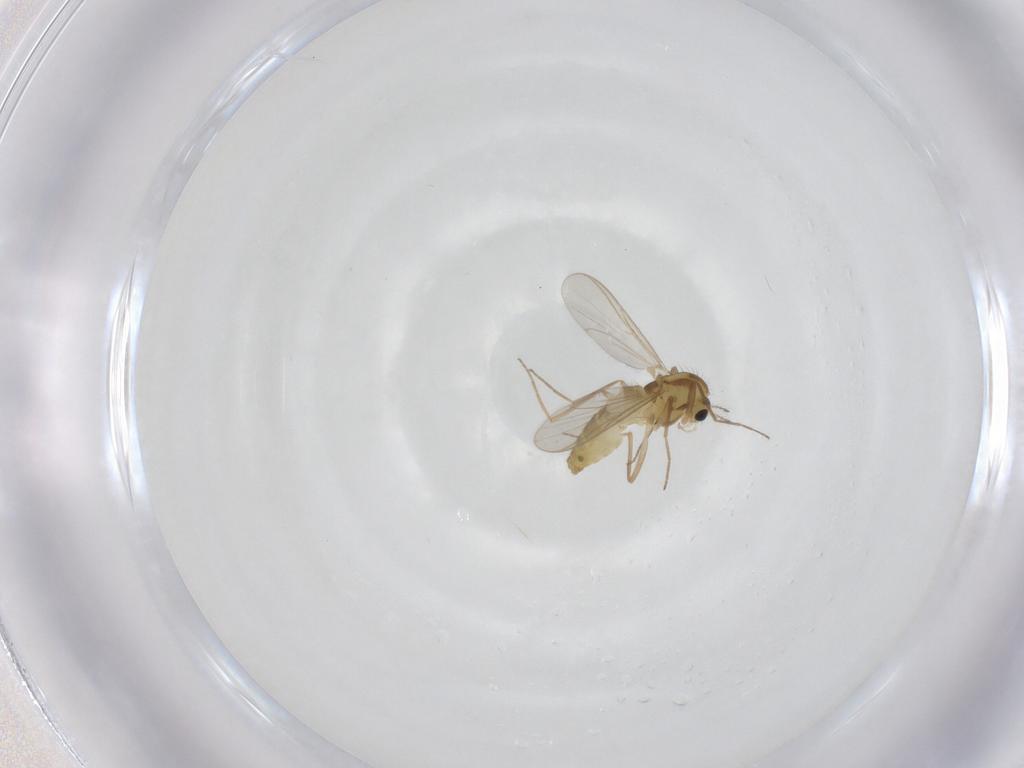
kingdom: Animalia
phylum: Arthropoda
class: Insecta
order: Diptera
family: Chironomidae
